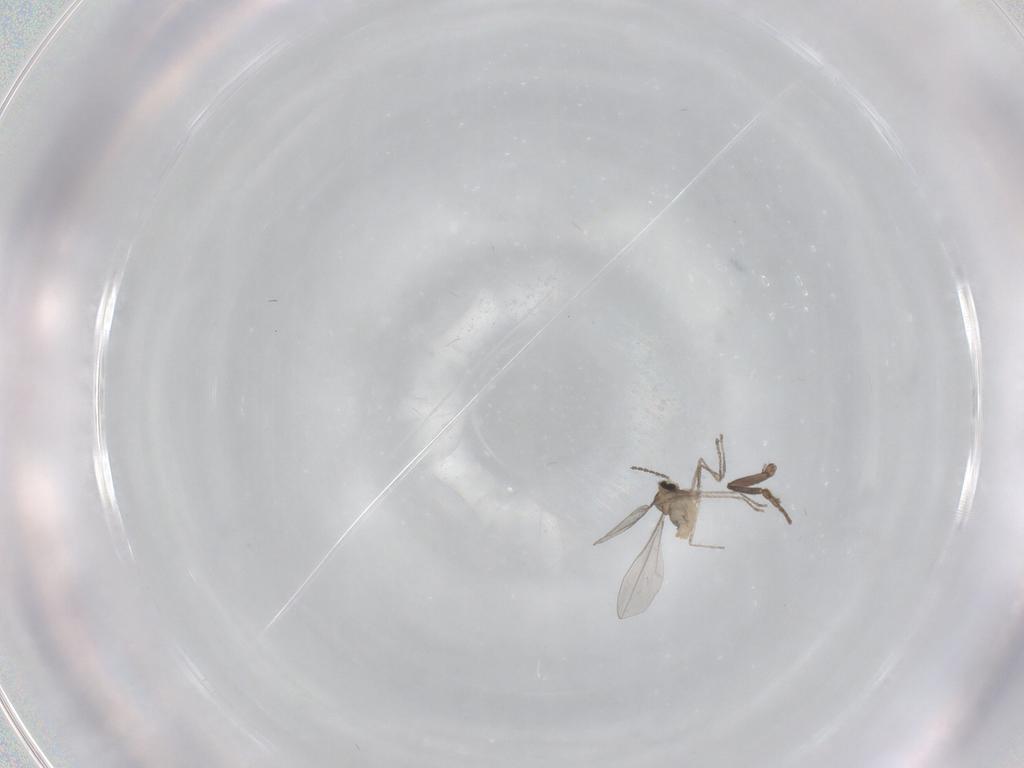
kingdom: Animalia
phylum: Arthropoda
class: Insecta
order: Diptera
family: Sphaeroceridae
